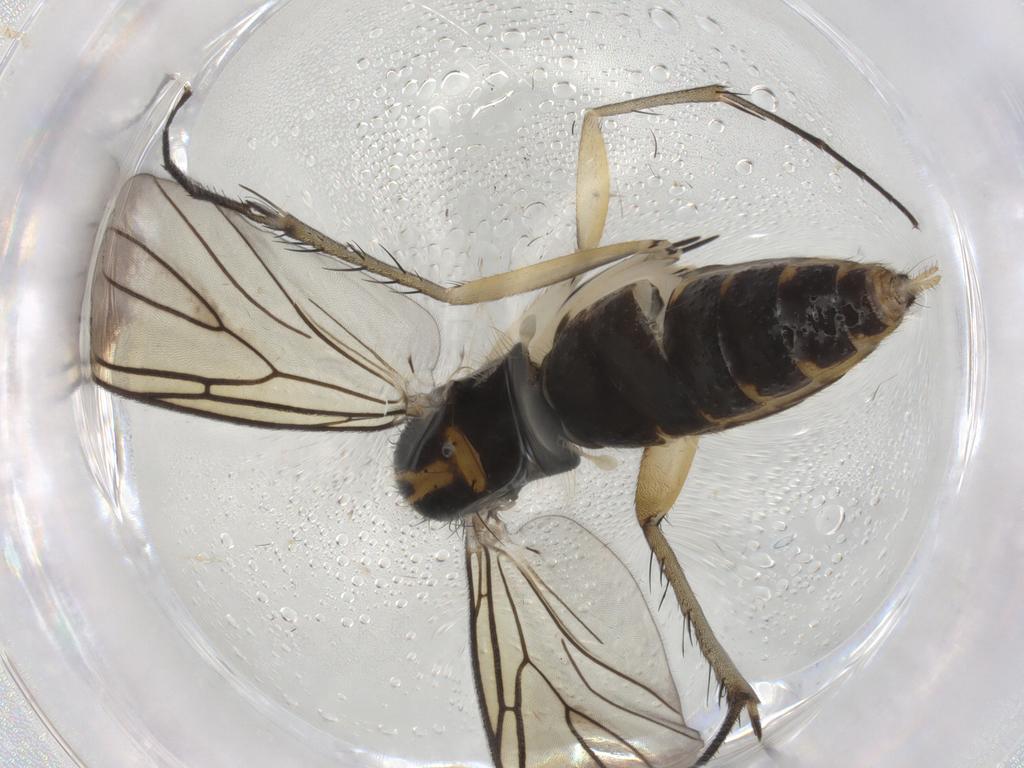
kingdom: Animalia
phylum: Arthropoda
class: Insecta
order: Diptera
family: Mycetophilidae
